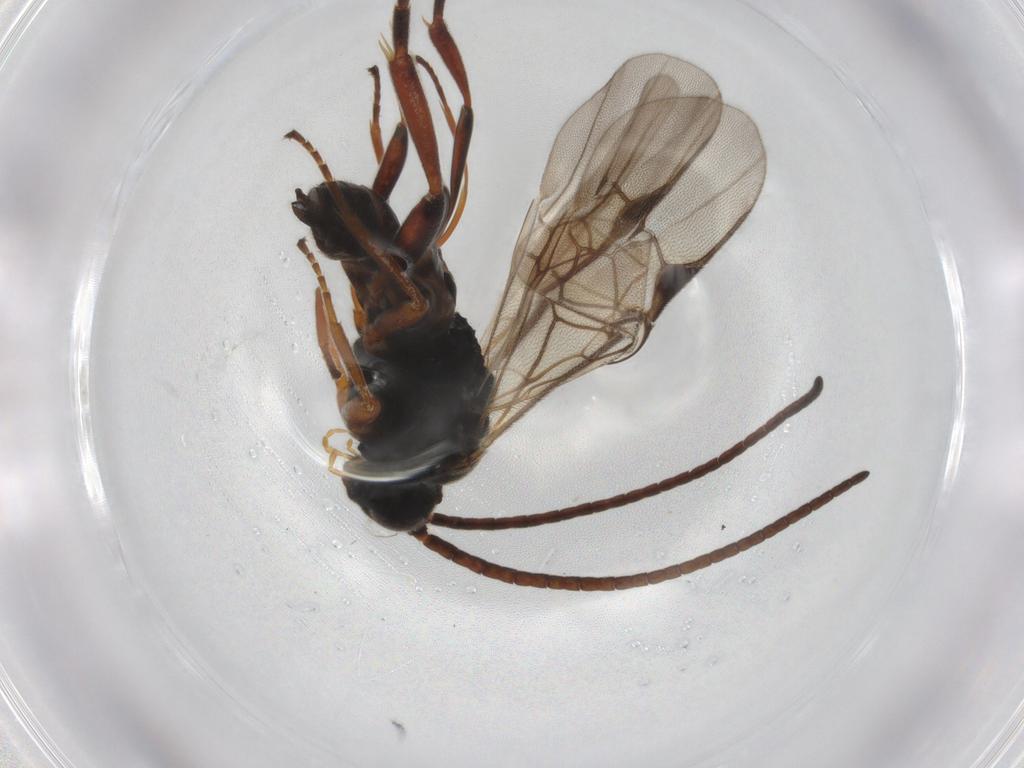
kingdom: Animalia
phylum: Arthropoda
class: Insecta
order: Hymenoptera
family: Braconidae
